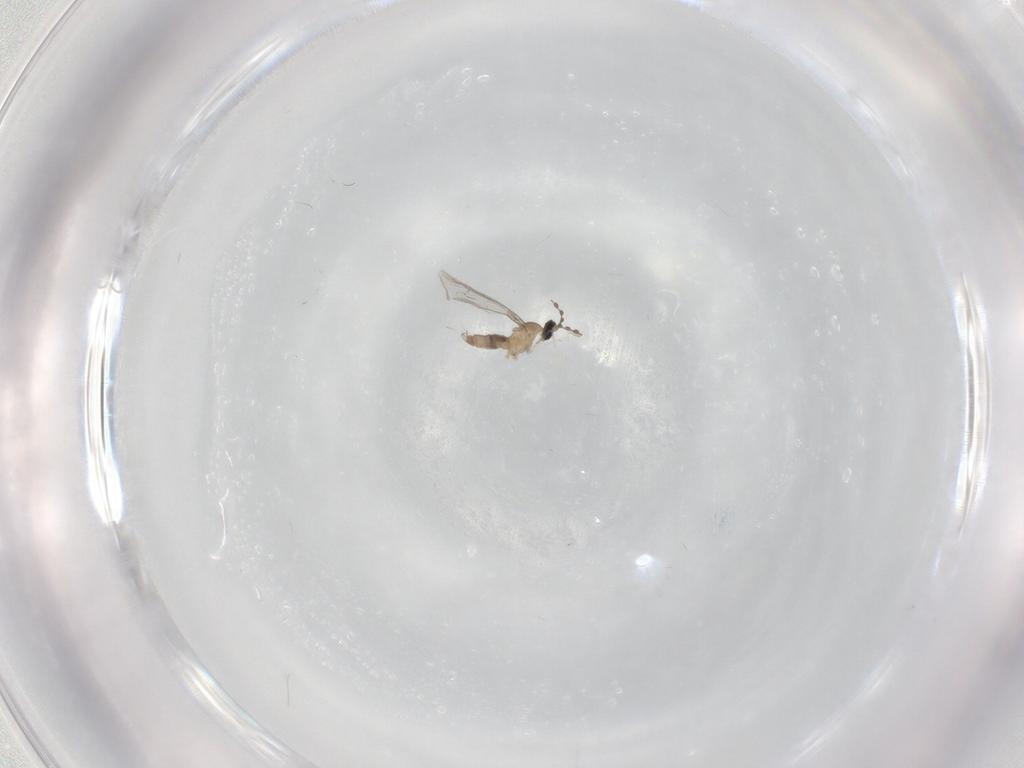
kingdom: Animalia
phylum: Arthropoda
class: Insecta
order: Diptera
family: Cecidomyiidae
